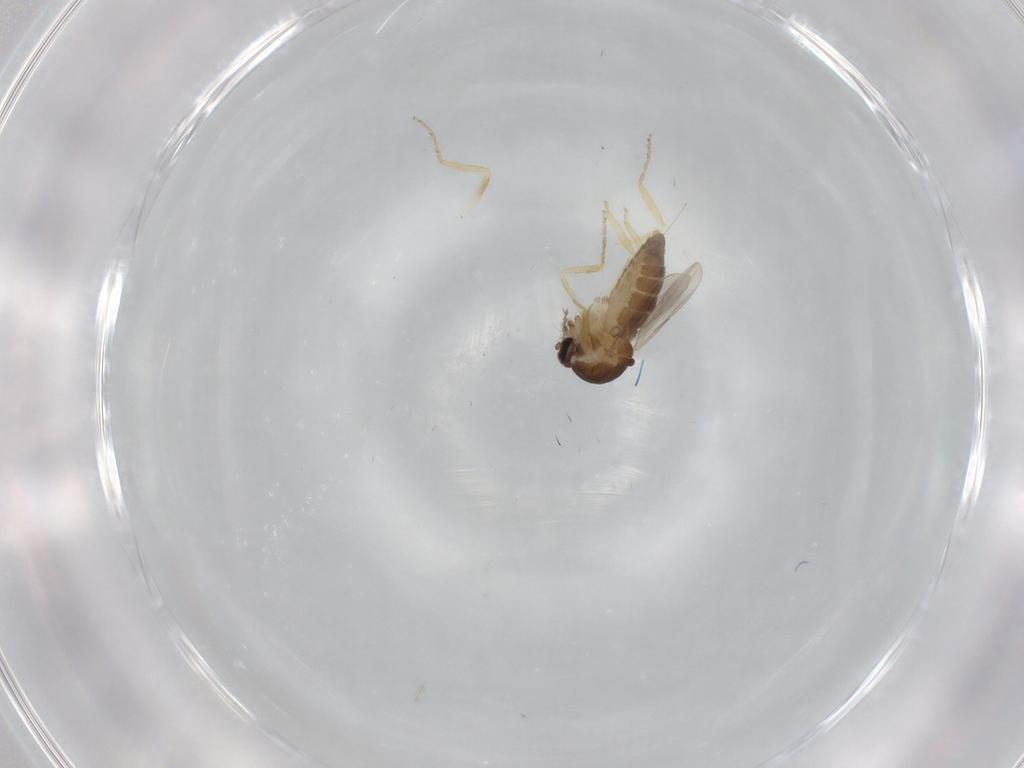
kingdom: Animalia
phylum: Arthropoda
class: Insecta
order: Diptera
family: Ceratopogonidae
